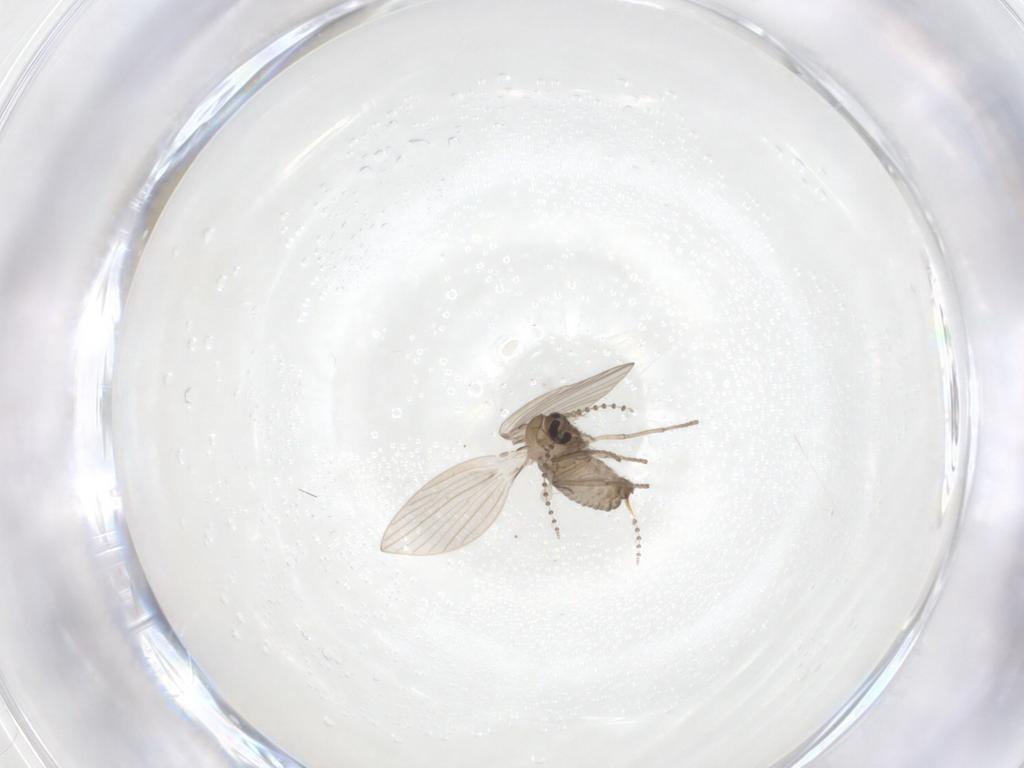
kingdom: Animalia
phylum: Arthropoda
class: Insecta
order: Diptera
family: Psychodidae
